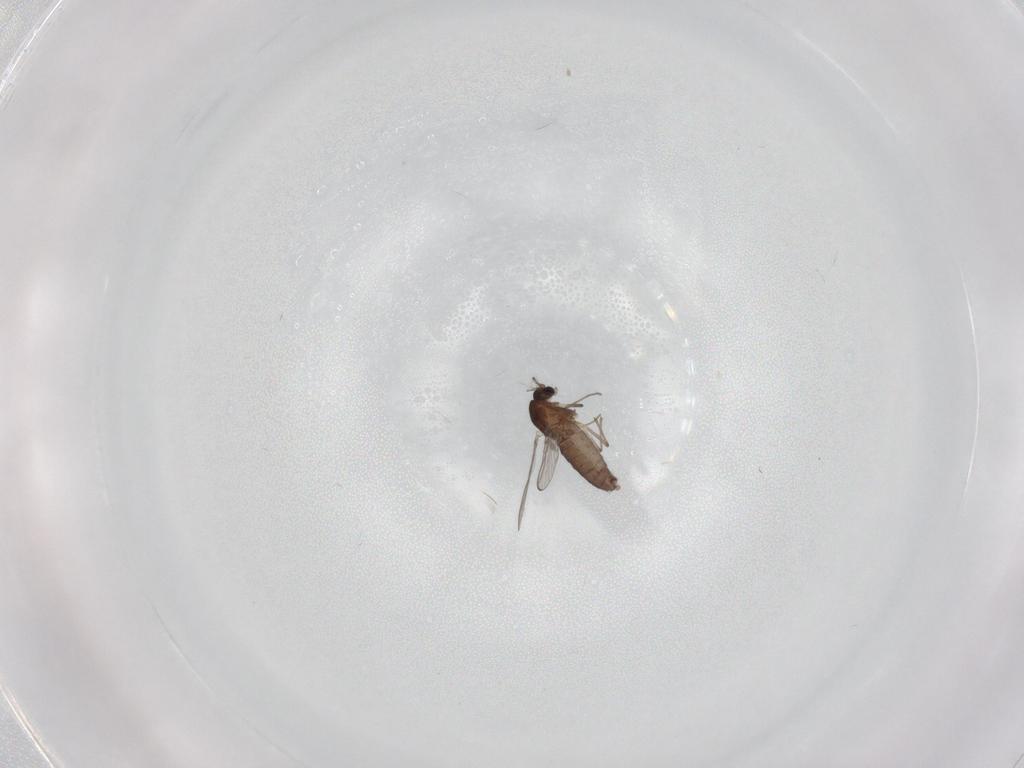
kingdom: Animalia
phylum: Arthropoda
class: Insecta
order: Diptera
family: Chironomidae
